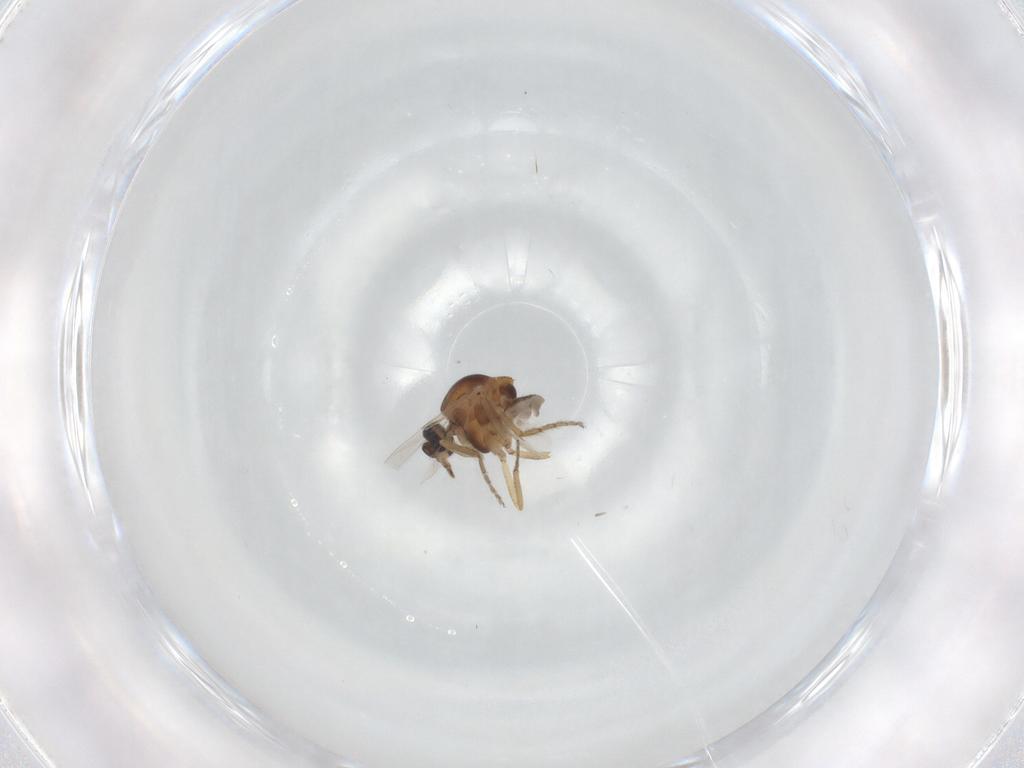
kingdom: Animalia
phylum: Arthropoda
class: Insecta
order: Diptera
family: Ceratopogonidae
